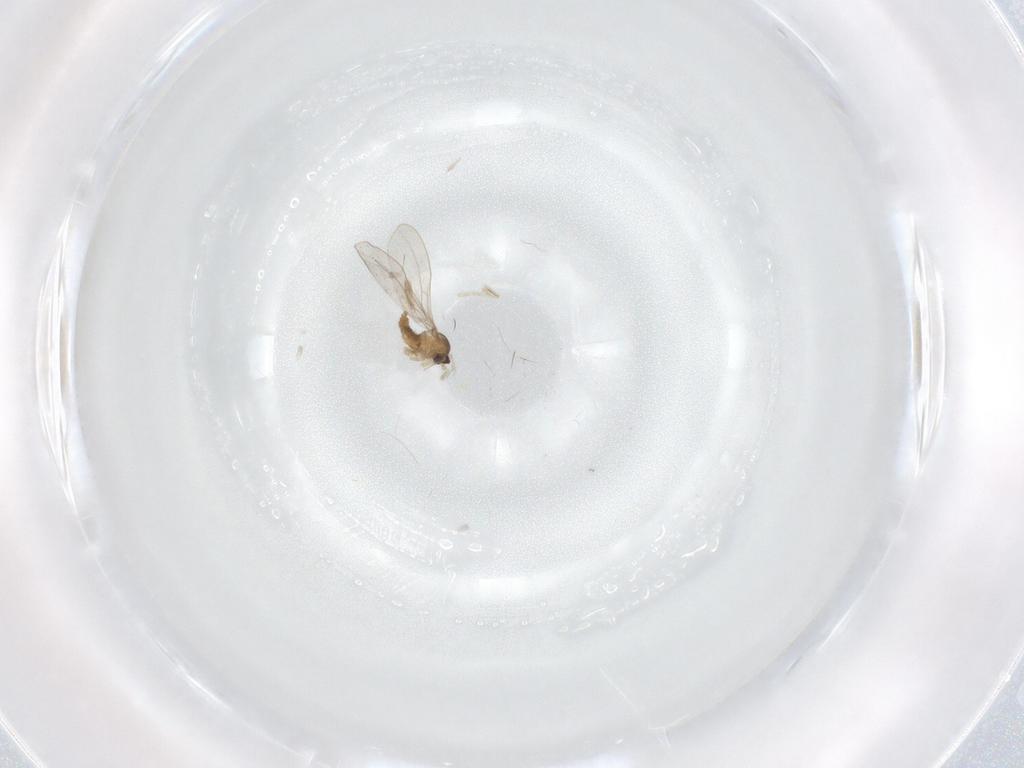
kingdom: Animalia
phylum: Arthropoda
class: Insecta
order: Diptera
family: Cecidomyiidae
